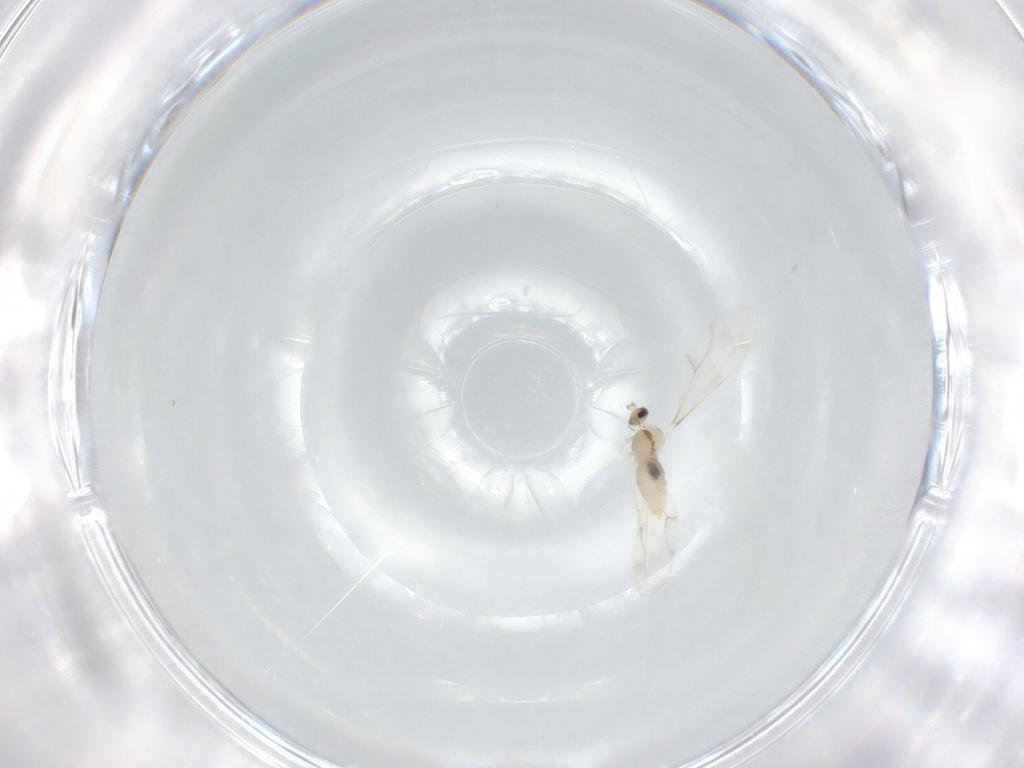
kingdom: Animalia
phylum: Arthropoda
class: Insecta
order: Diptera
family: Cecidomyiidae
